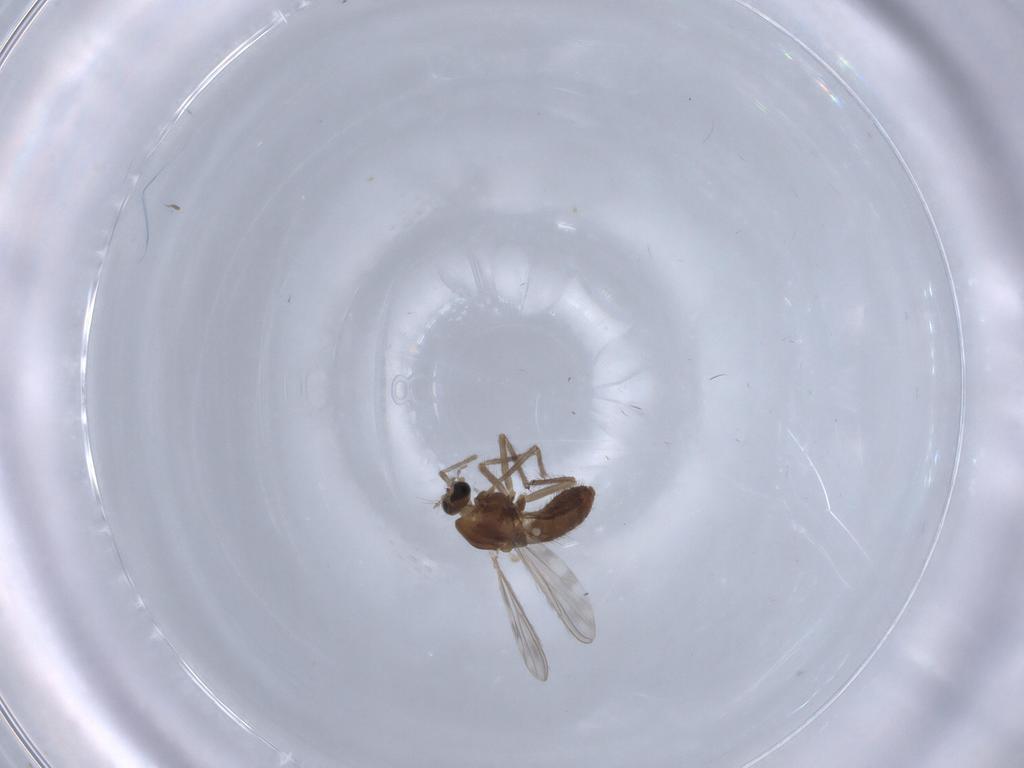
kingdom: Animalia
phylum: Arthropoda
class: Insecta
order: Diptera
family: Chironomidae
